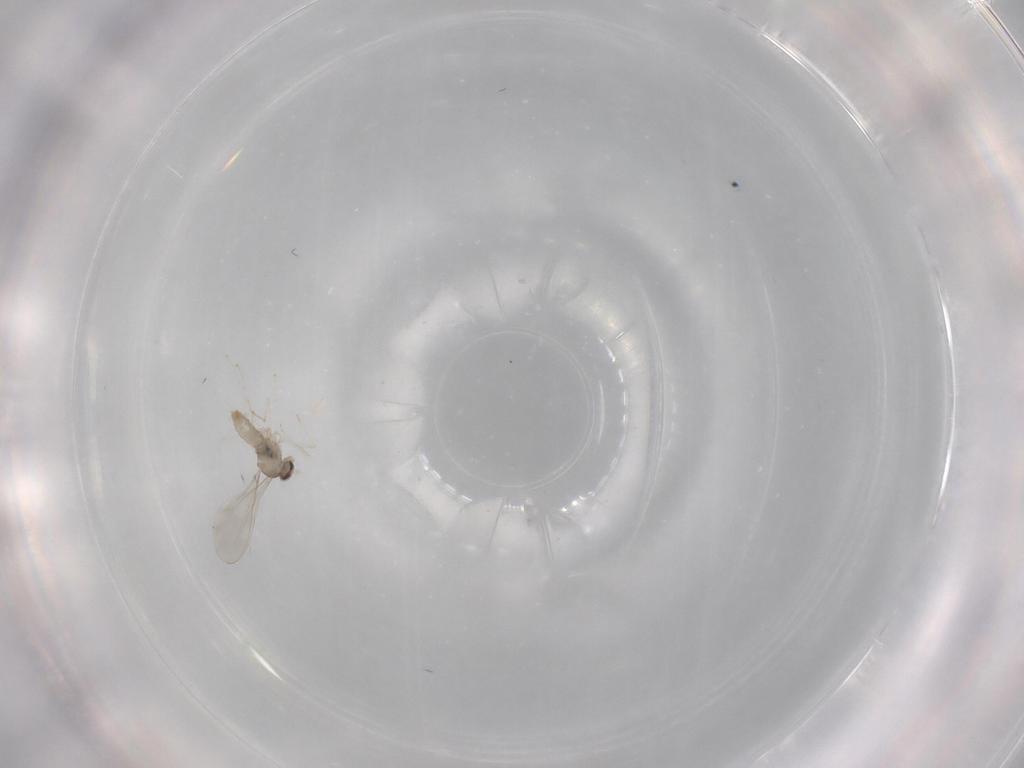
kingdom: Animalia
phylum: Arthropoda
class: Insecta
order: Diptera
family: Cecidomyiidae
